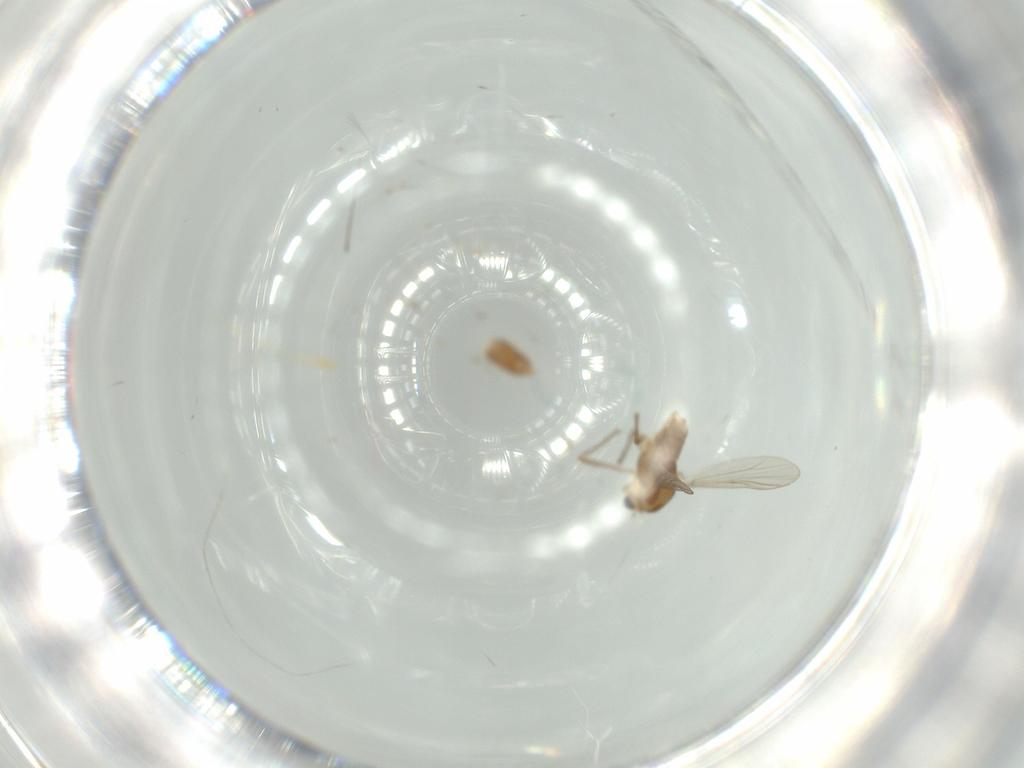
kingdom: Animalia
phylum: Arthropoda
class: Insecta
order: Diptera
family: Chironomidae
